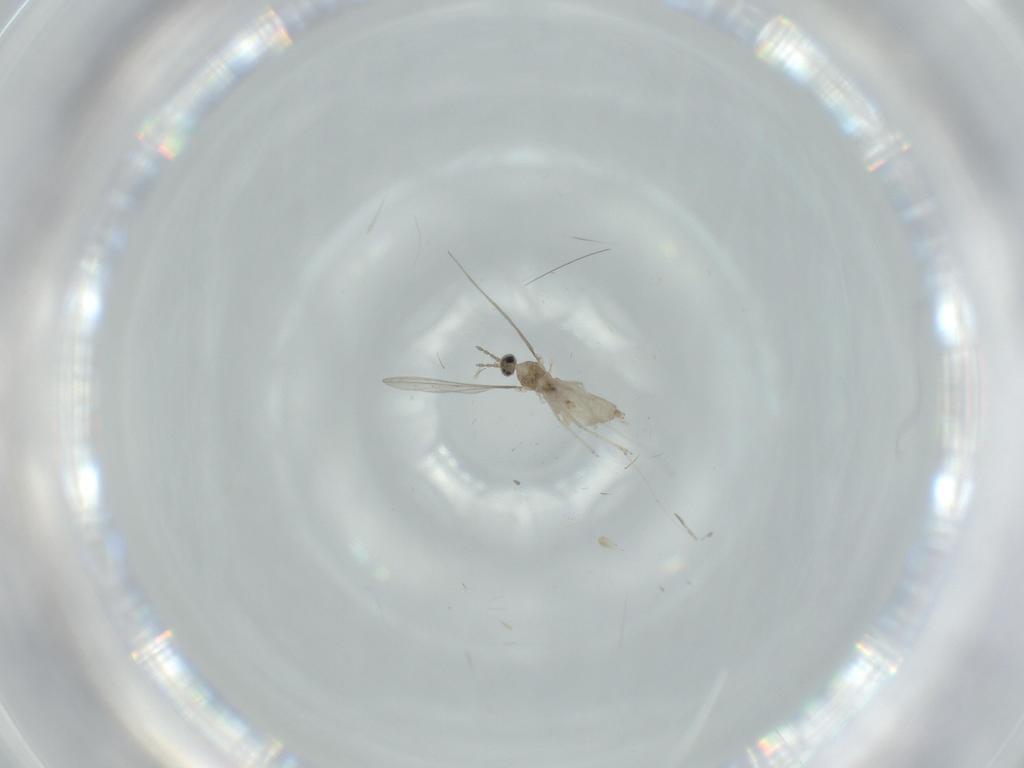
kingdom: Animalia
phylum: Arthropoda
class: Insecta
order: Diptera
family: Cecidomyiidae
